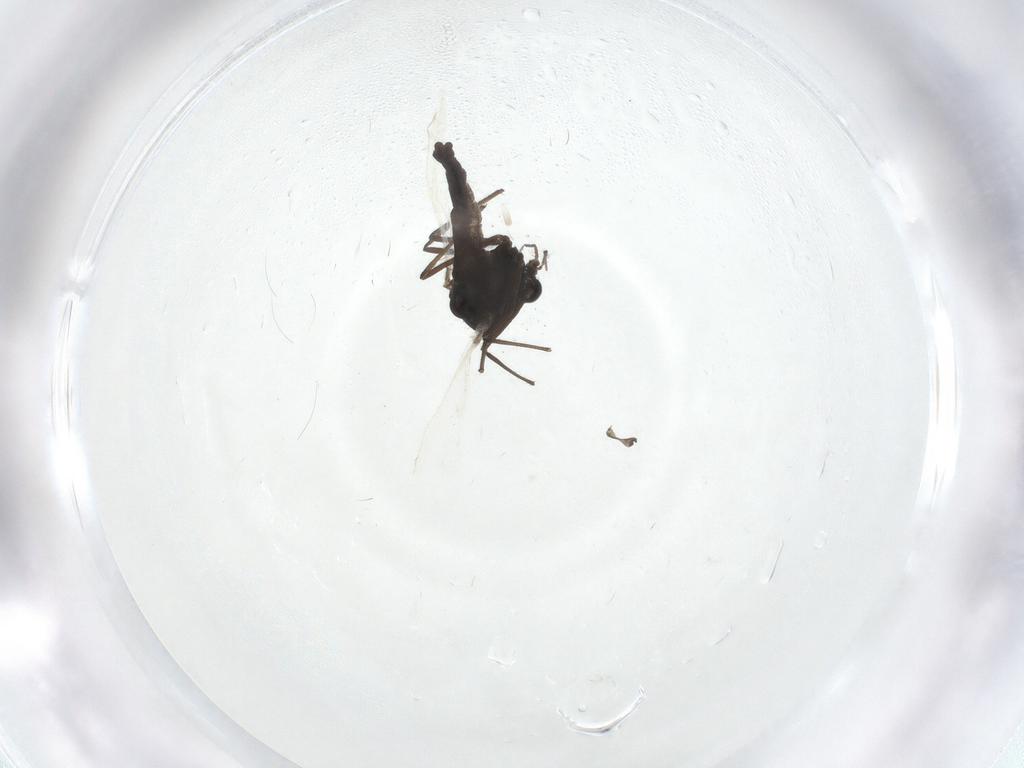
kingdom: Animalia
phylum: Arthropoda
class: Insecta
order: Diptera
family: Chironomidae
